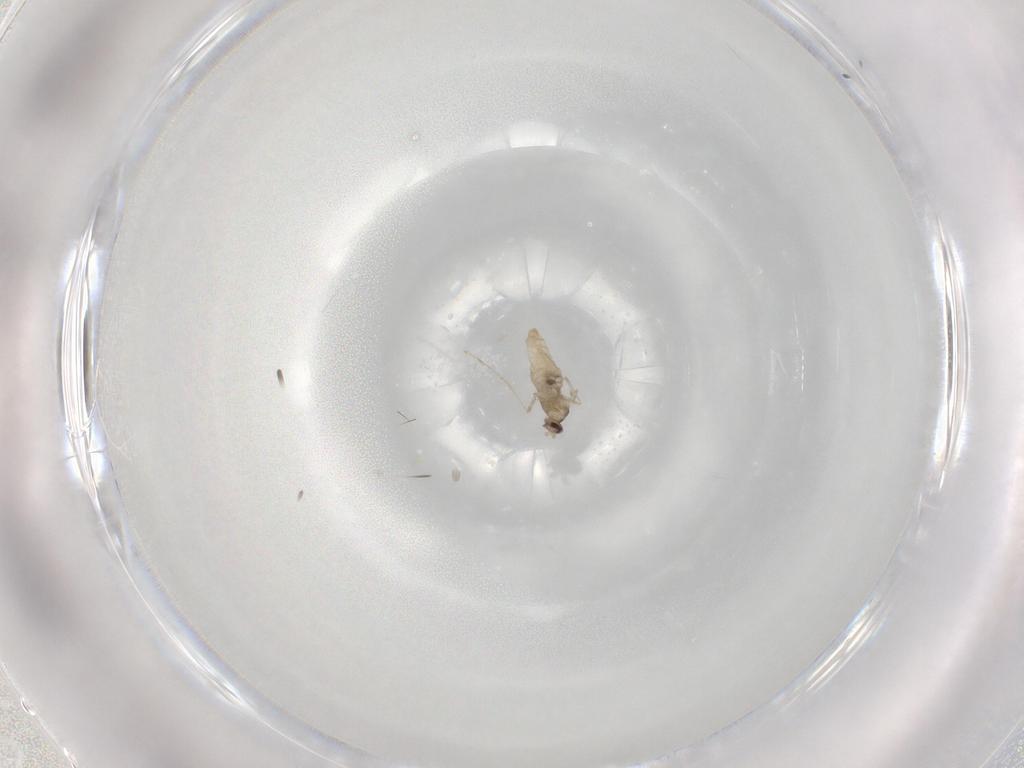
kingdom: Animalia
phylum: Arthropoda
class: Insecta
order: Diptera
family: Cecidomyiidae
